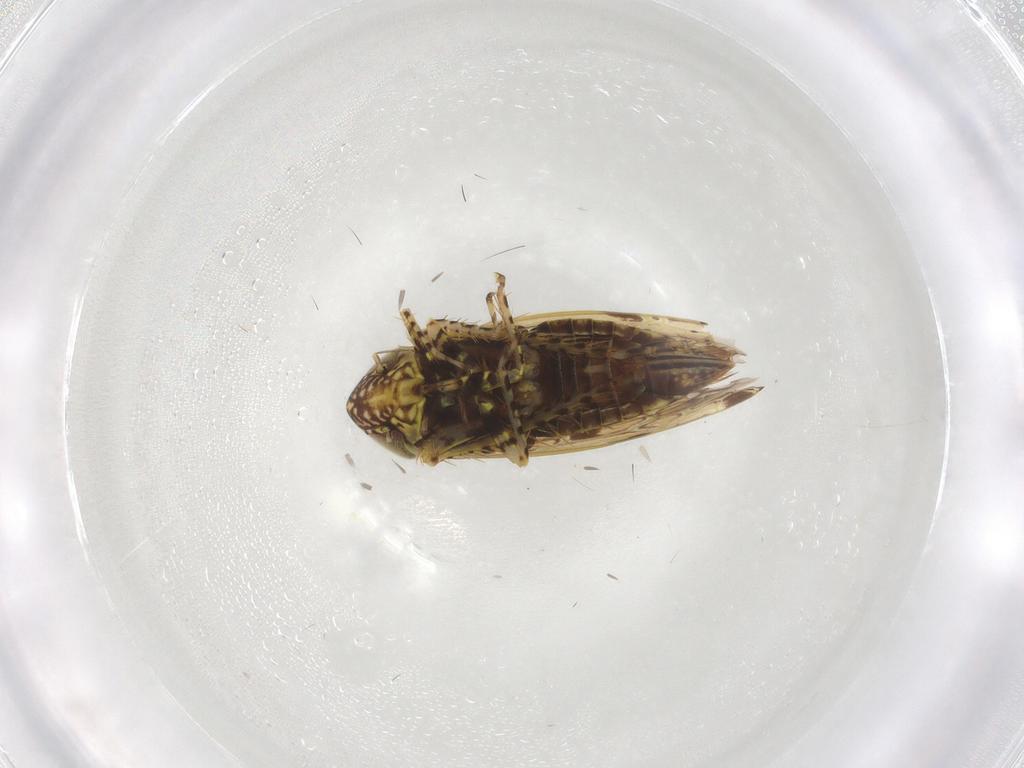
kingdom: Animalia
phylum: Arthropoda
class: Insecta
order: Hemiptera
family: Cicadellidae
